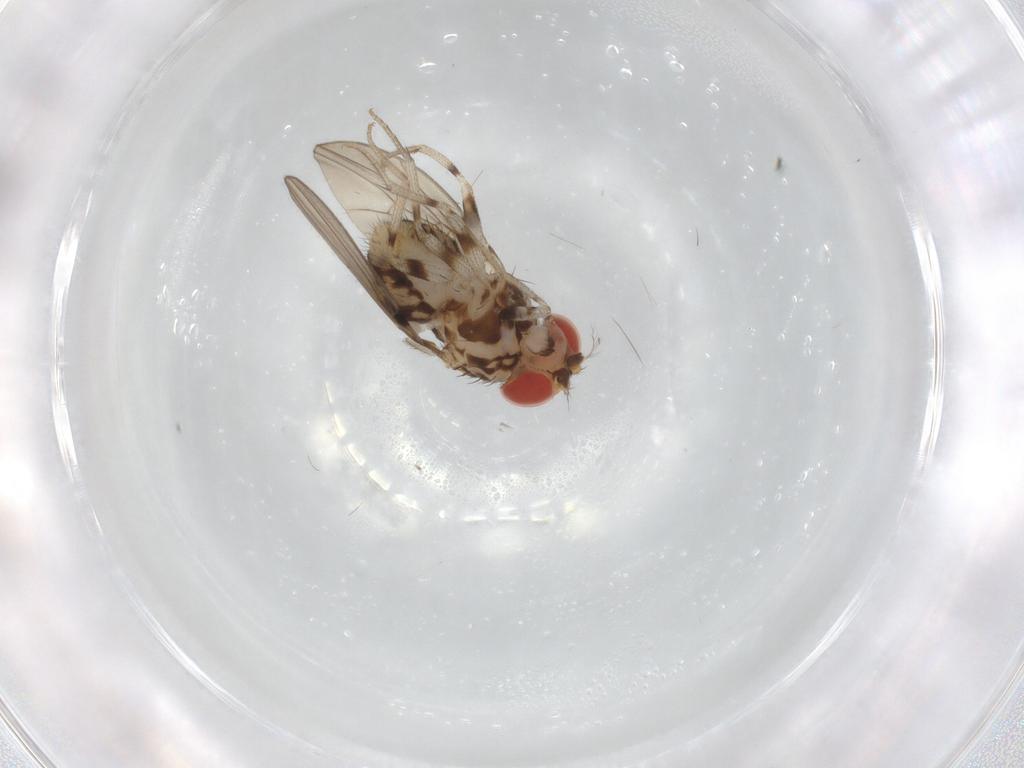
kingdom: Animalia
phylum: Arthropoda
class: Insecta
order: Diptera
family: Drosophilidae
